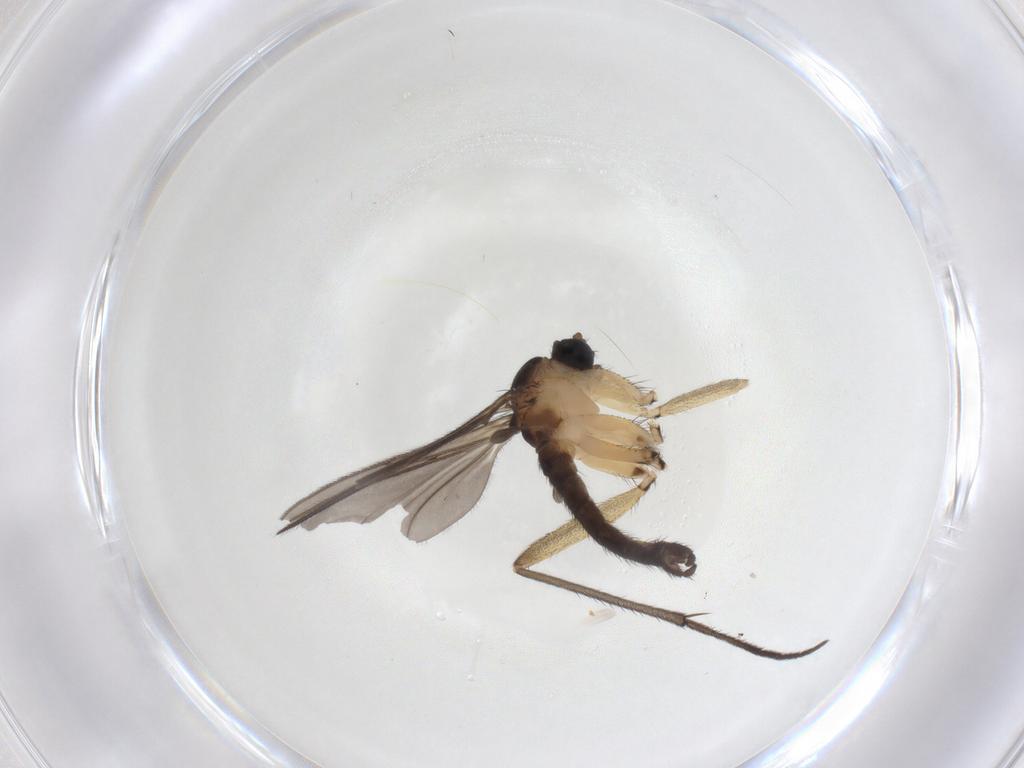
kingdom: Animalia
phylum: Arthropoda
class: Insecta
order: Diptera
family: Sciaridae
